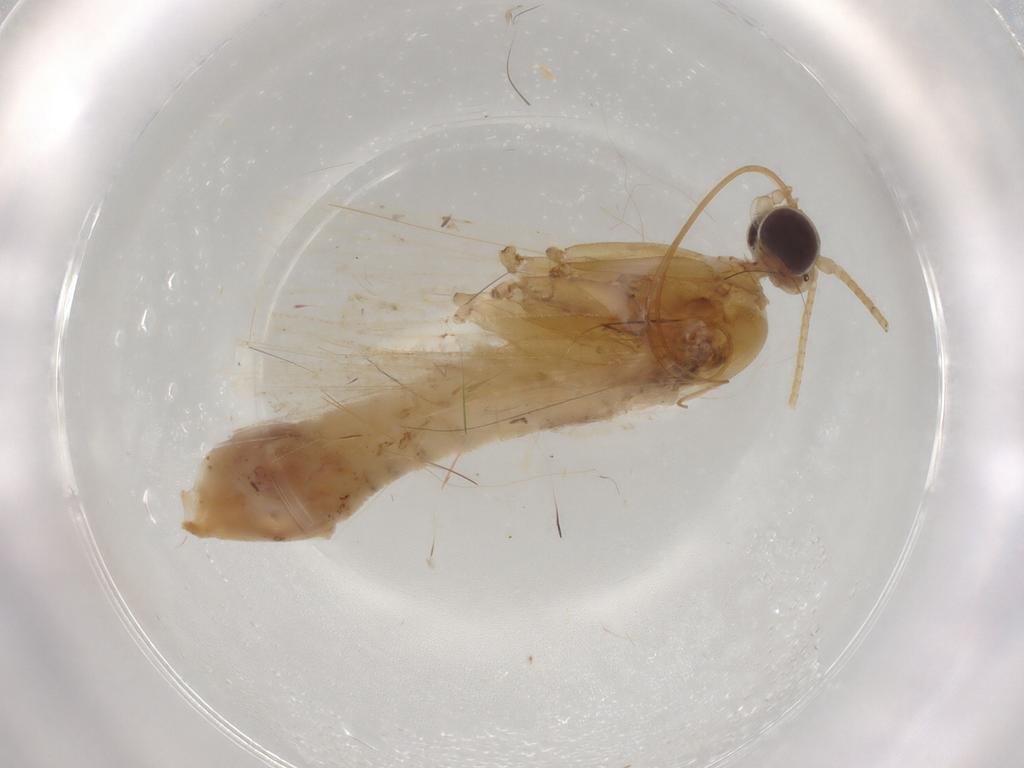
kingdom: Animalia
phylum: Arthropoda
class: Insecta
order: Lepidoptera
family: Crambidae
